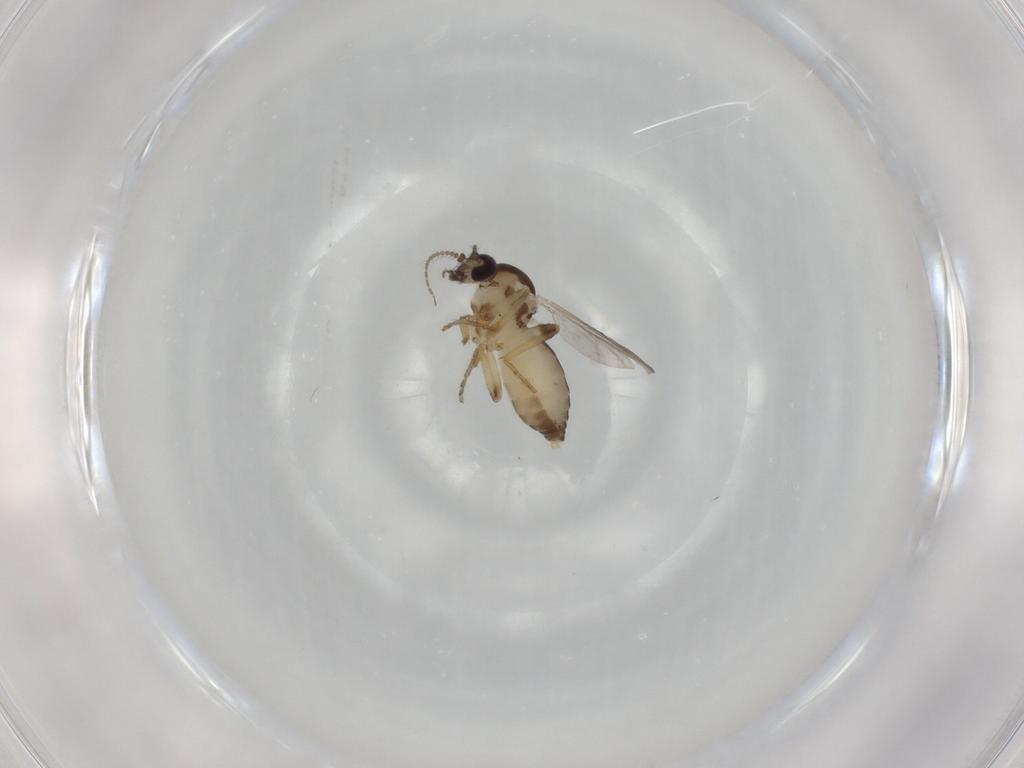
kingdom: Animalia
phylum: Arthropoda
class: Insecta
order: Diptera
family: Ceratopogonidae
